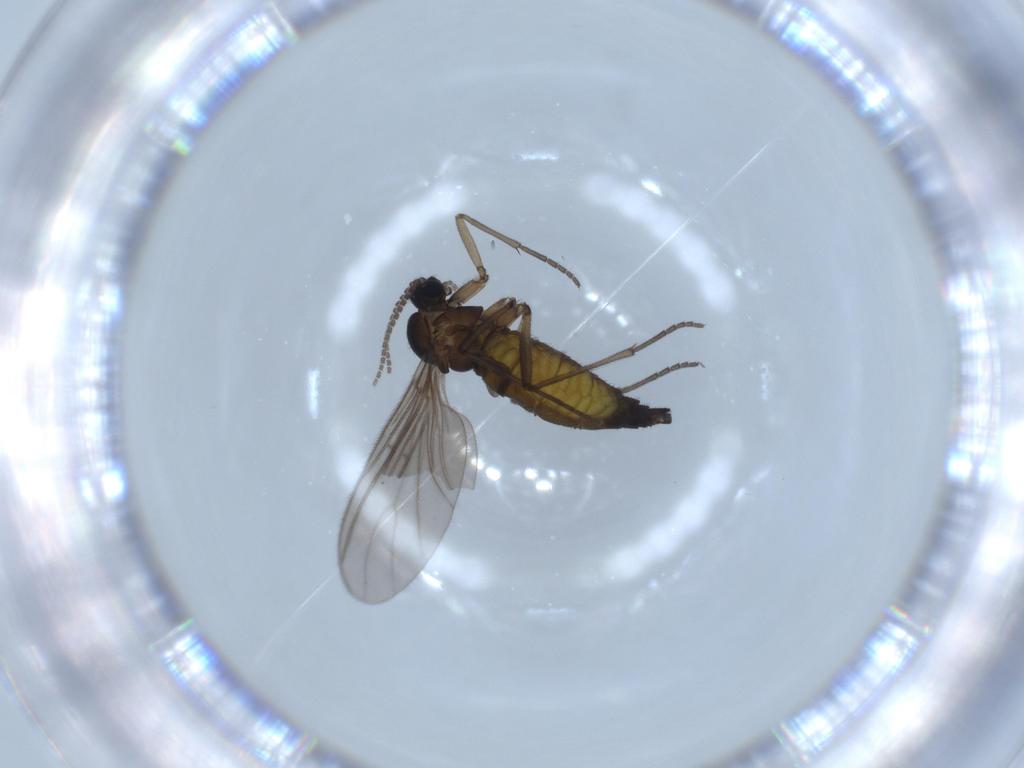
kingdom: Animalia
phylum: Arthropoda
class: Insecta
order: Diptera
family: Sciaridae
